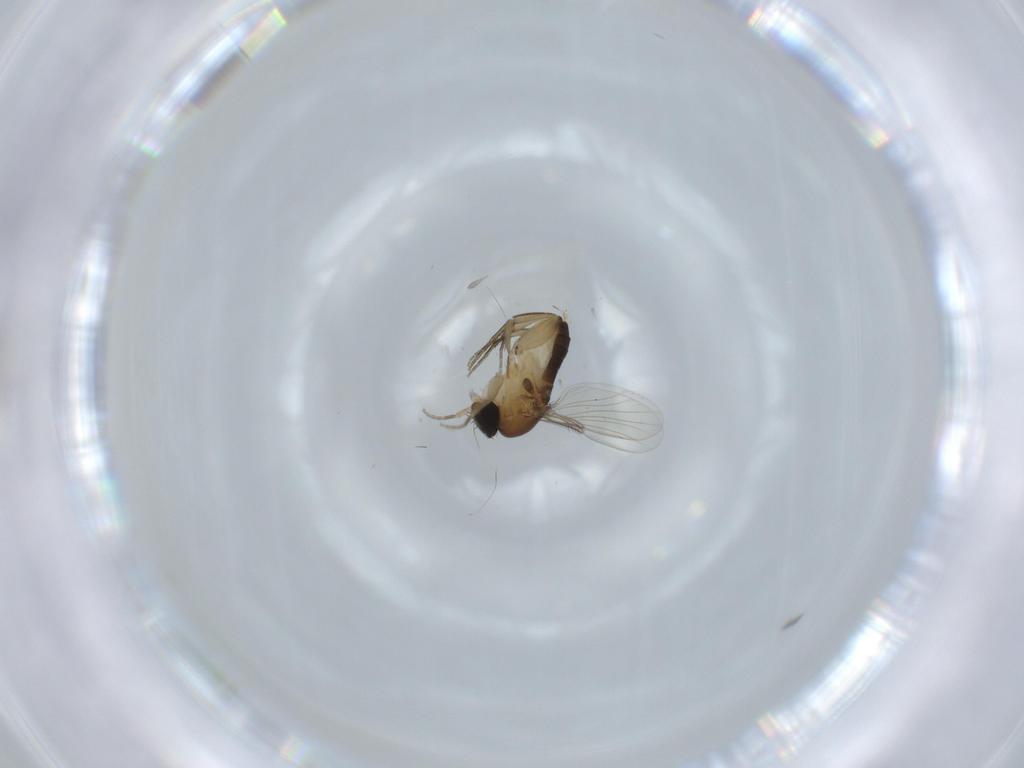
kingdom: Animalia
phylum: Arthropoda
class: Insecta
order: Diptera
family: Phoridae
